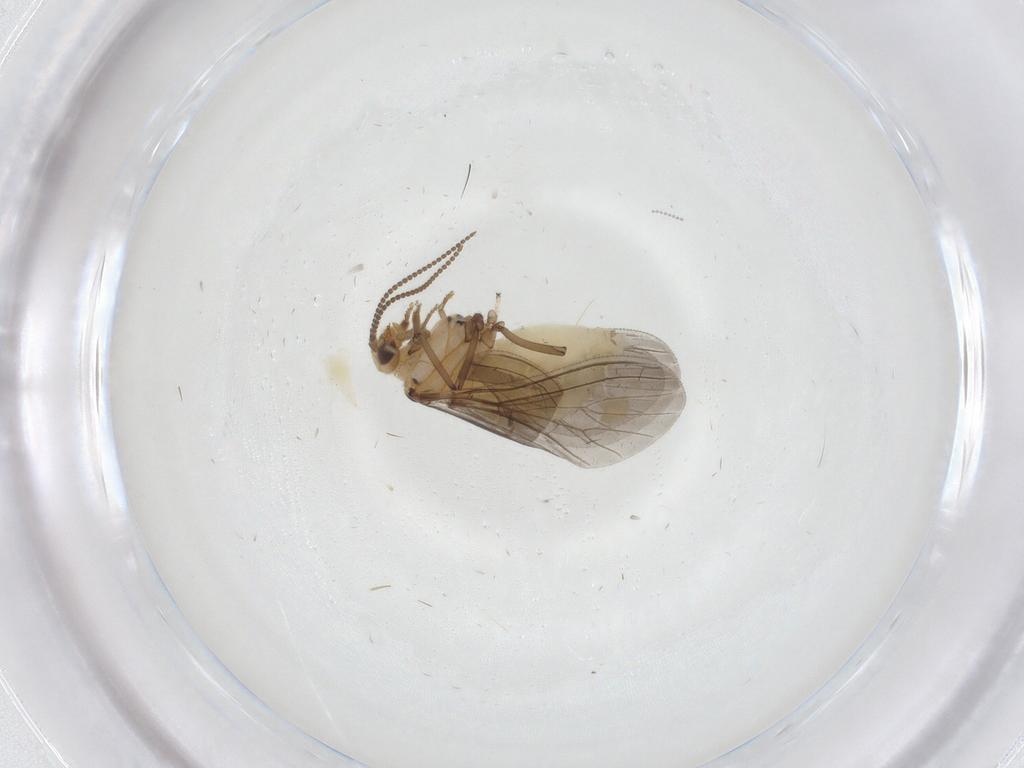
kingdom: Animalia
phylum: Arthropoda
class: Insecta
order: Neuroptera
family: Coniopterygidae
